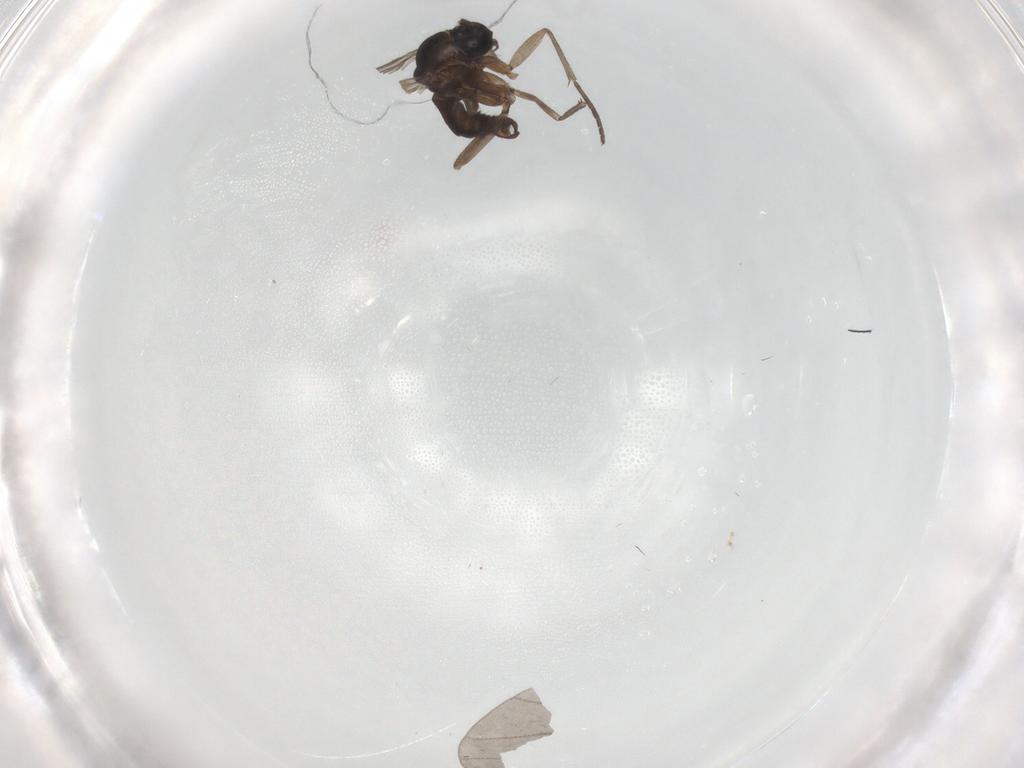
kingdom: Animalia
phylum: Arthropoda
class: Insecta
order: Diptera
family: Sciaridae
